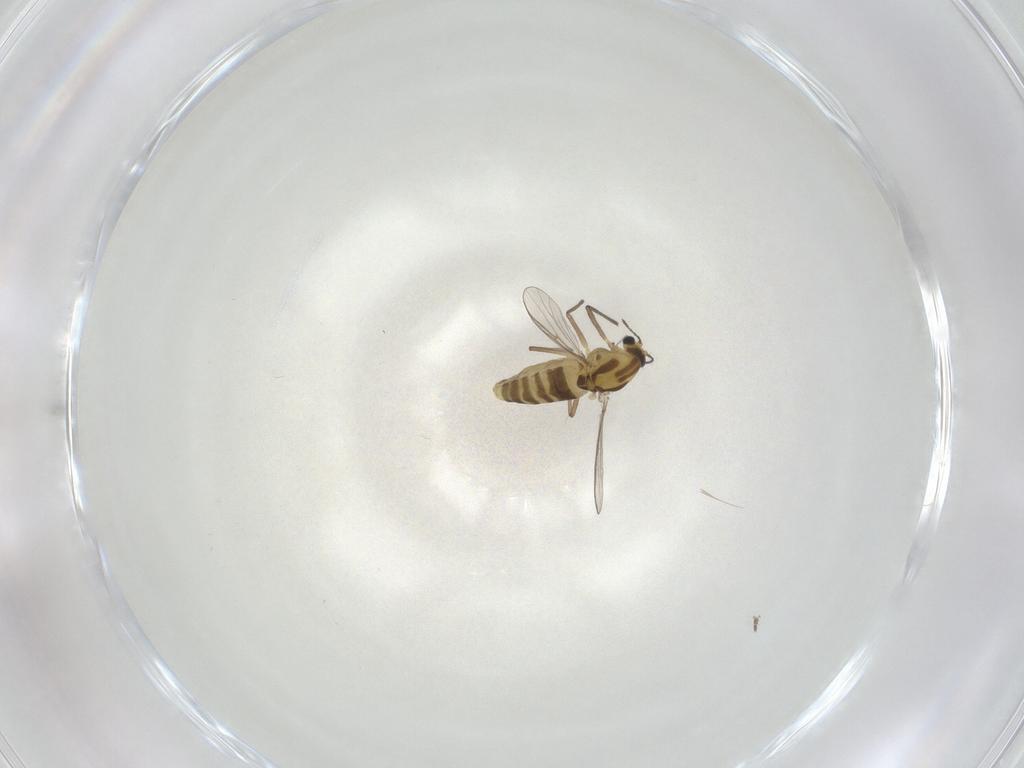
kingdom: Animalia
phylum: Arthropoda
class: Insecta
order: Diptera
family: Chironomidae
